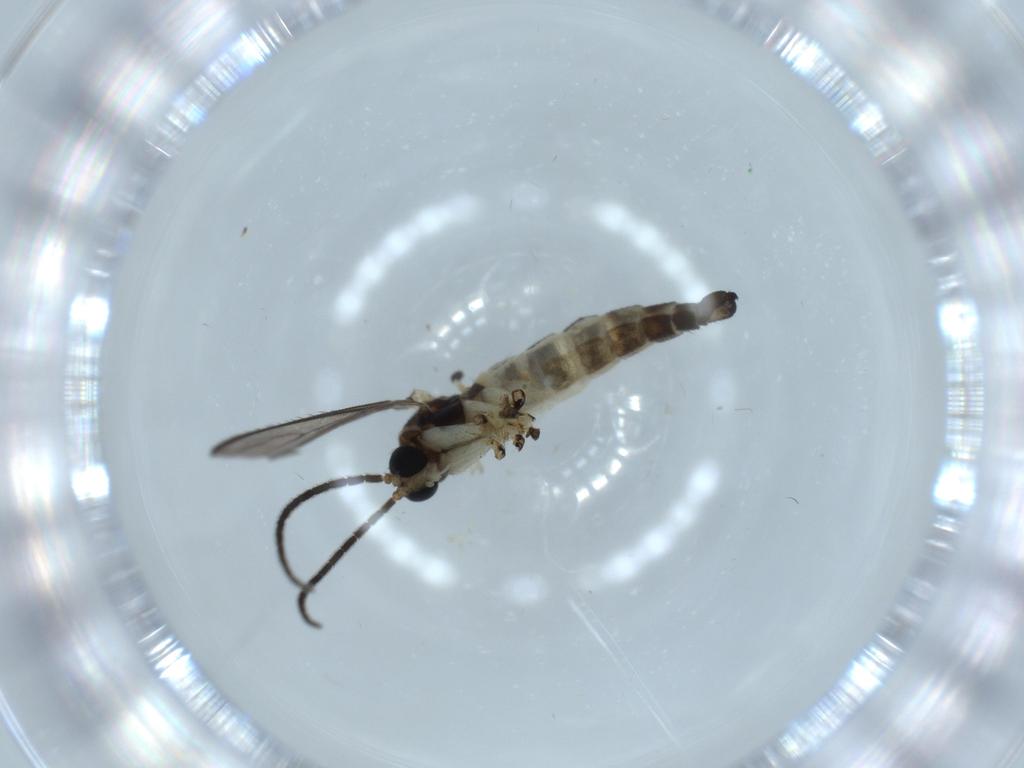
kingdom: Animalia
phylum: Arthropoda
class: Insecta
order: Diptera
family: Sciaridae
